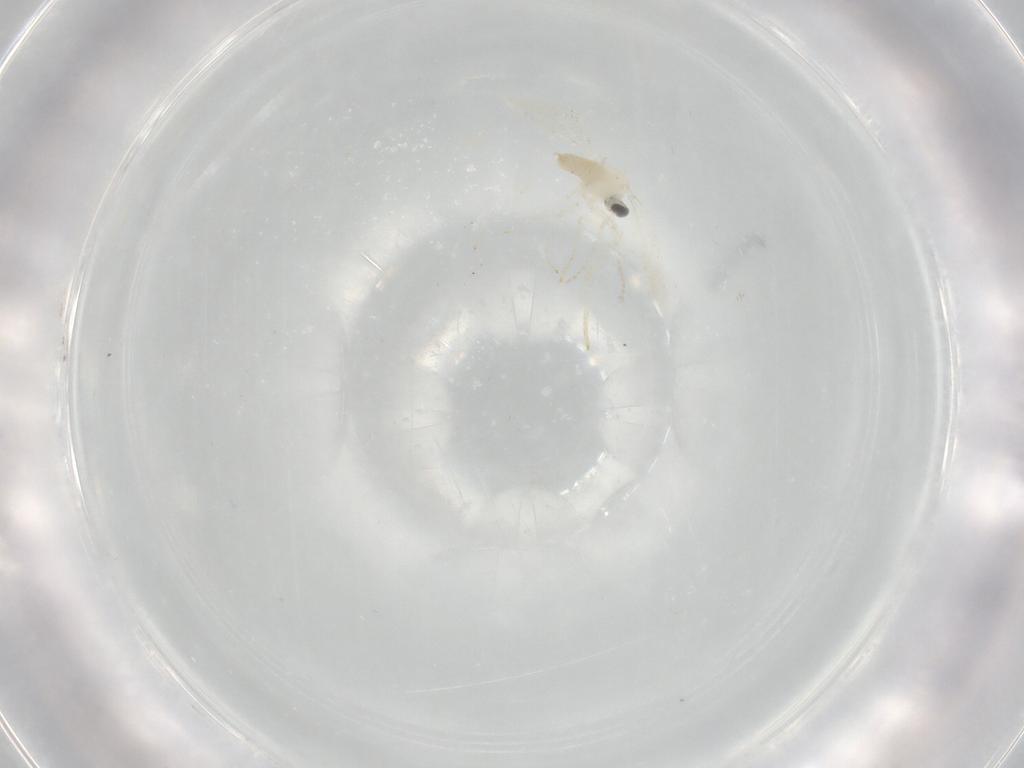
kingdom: Animalia
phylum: Arthropoda
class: Insecta
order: Diptera
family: Cecidomyiidae
